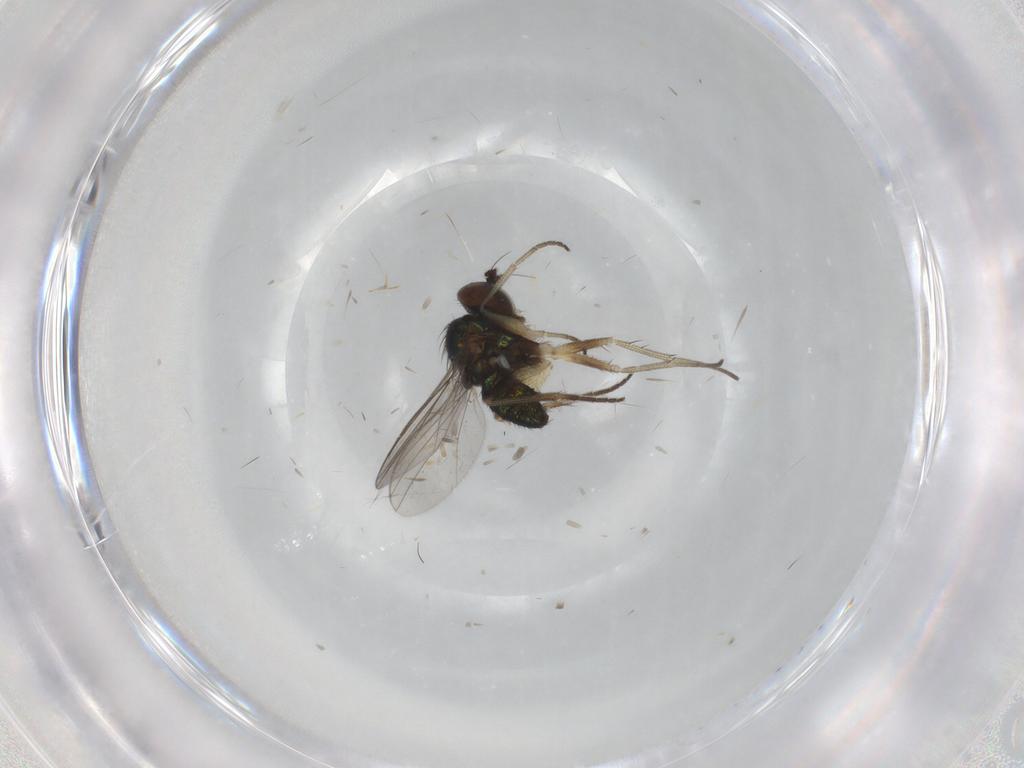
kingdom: Animalia
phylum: Arthropoda
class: Insecta
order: Diptera
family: Dolichopodidae
